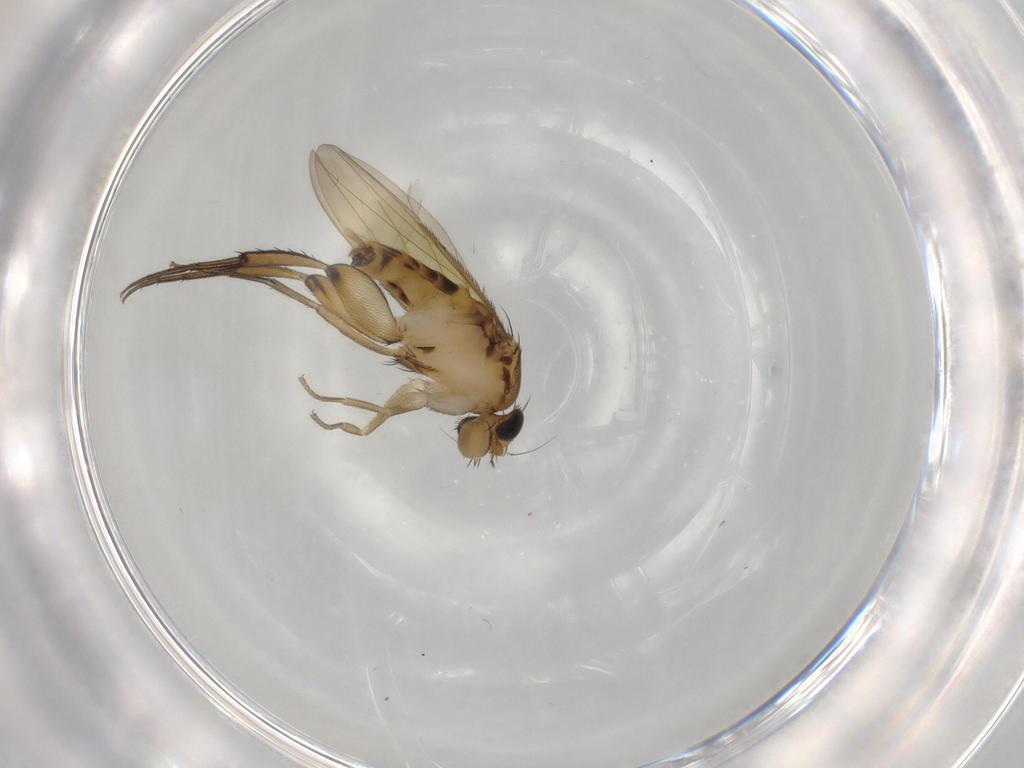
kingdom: Animalia
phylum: Arthropoda
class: Insecta
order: Diptera
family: Phoridae
